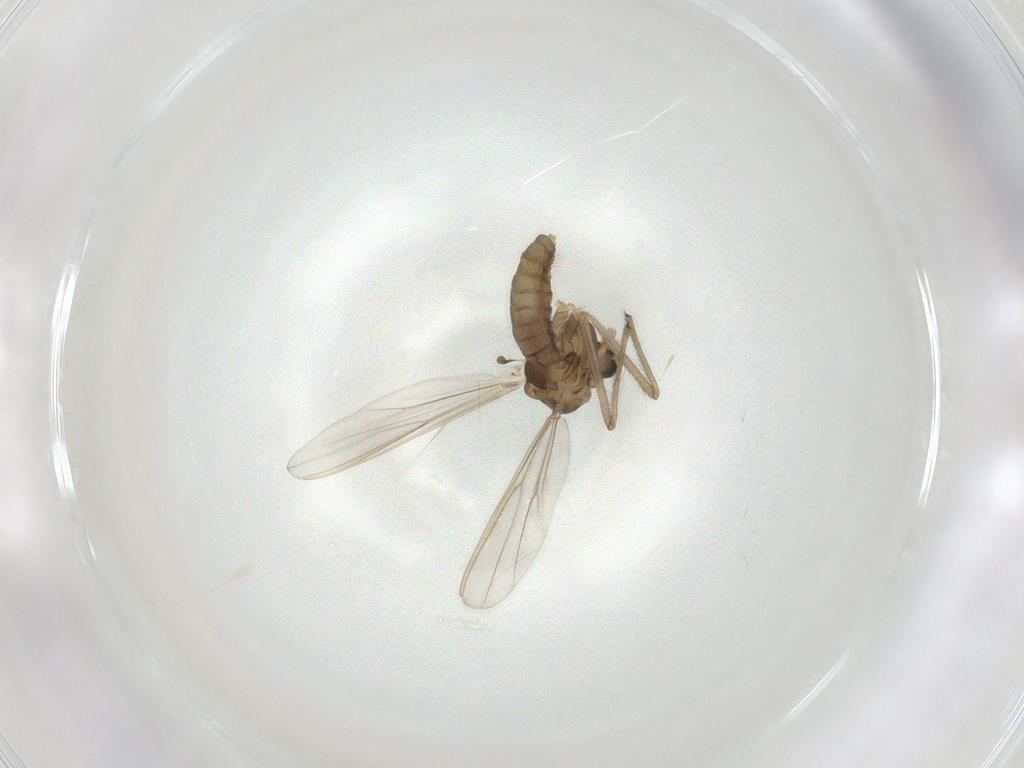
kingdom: Animalia
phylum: Arthropoda
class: Insecta
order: Diptera
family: Chironomidae
